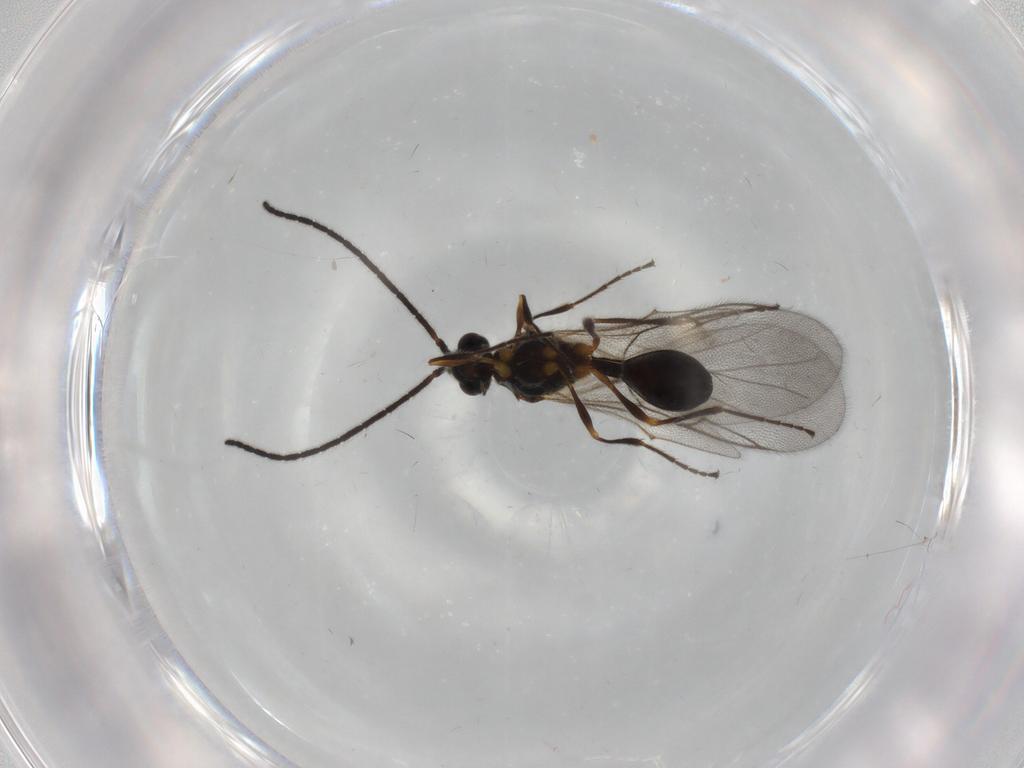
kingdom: Animalia
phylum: Arthropoda
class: Insecta
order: Hymenoptera
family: Diapriidae
